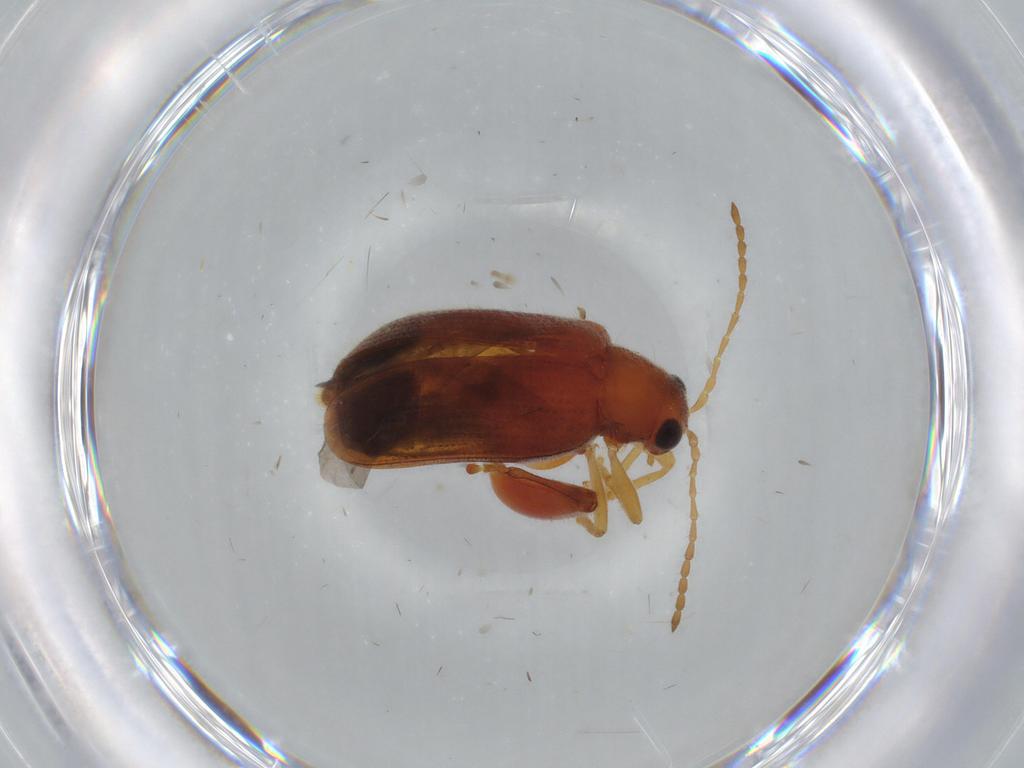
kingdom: Animalia
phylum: Arthropoda
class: Insecta
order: Coleoptera
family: Chrysomelidae
